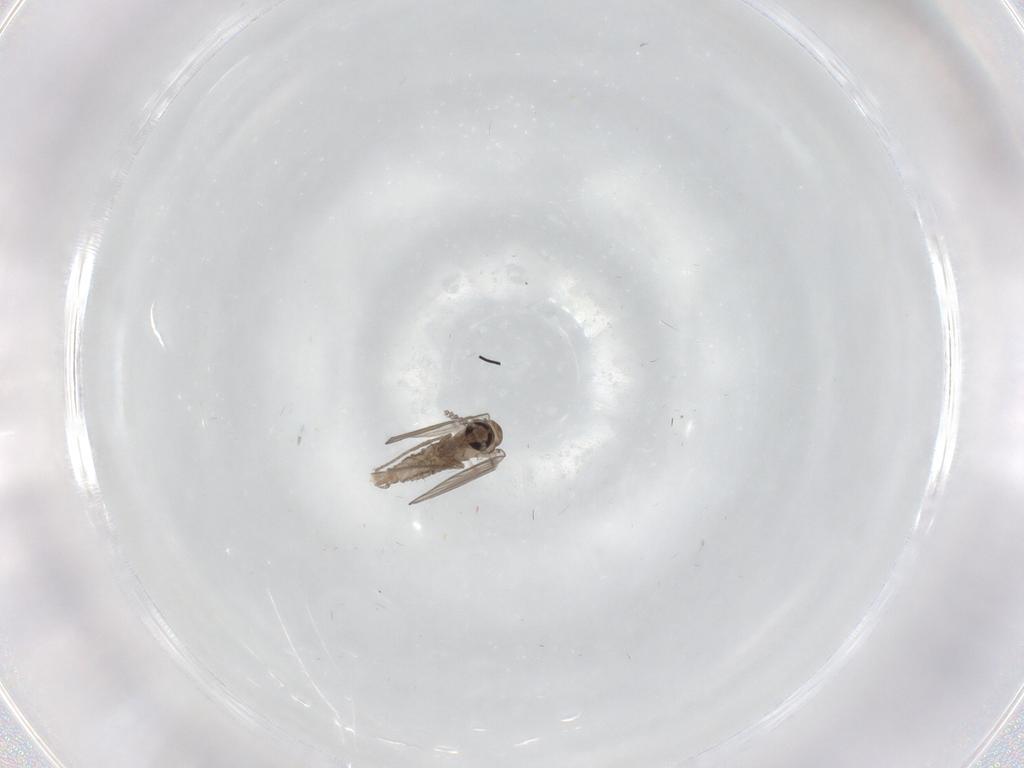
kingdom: Animalia
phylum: Arthropoda
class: Insecta
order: Diptera
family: Psychodidae
